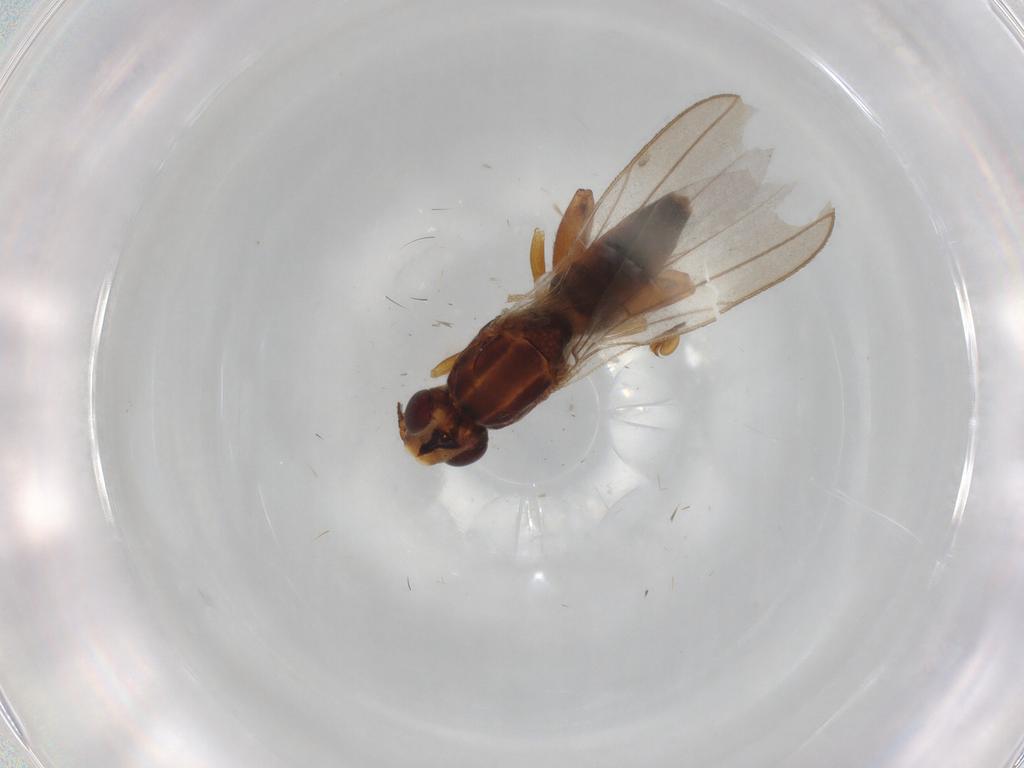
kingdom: Animalia
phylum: Arthropoda
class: Insecta
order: Diptera
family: Chloropidae
